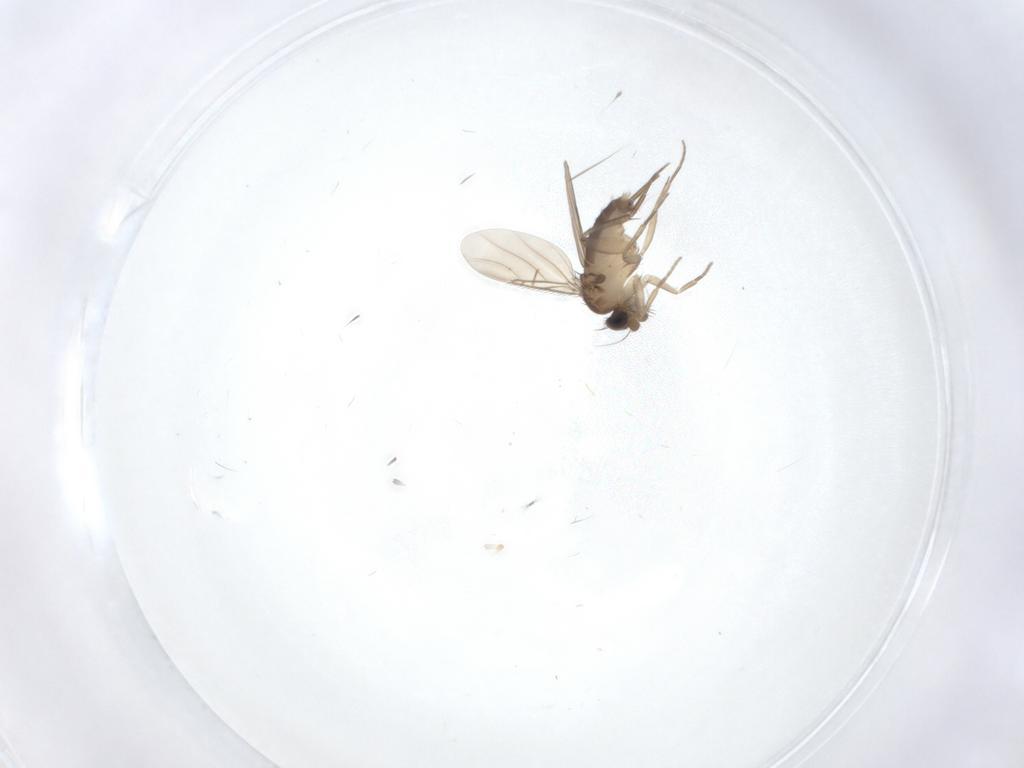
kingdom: Animalia
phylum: Arthropoda
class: Insecta
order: Diptera
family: Phoridae
